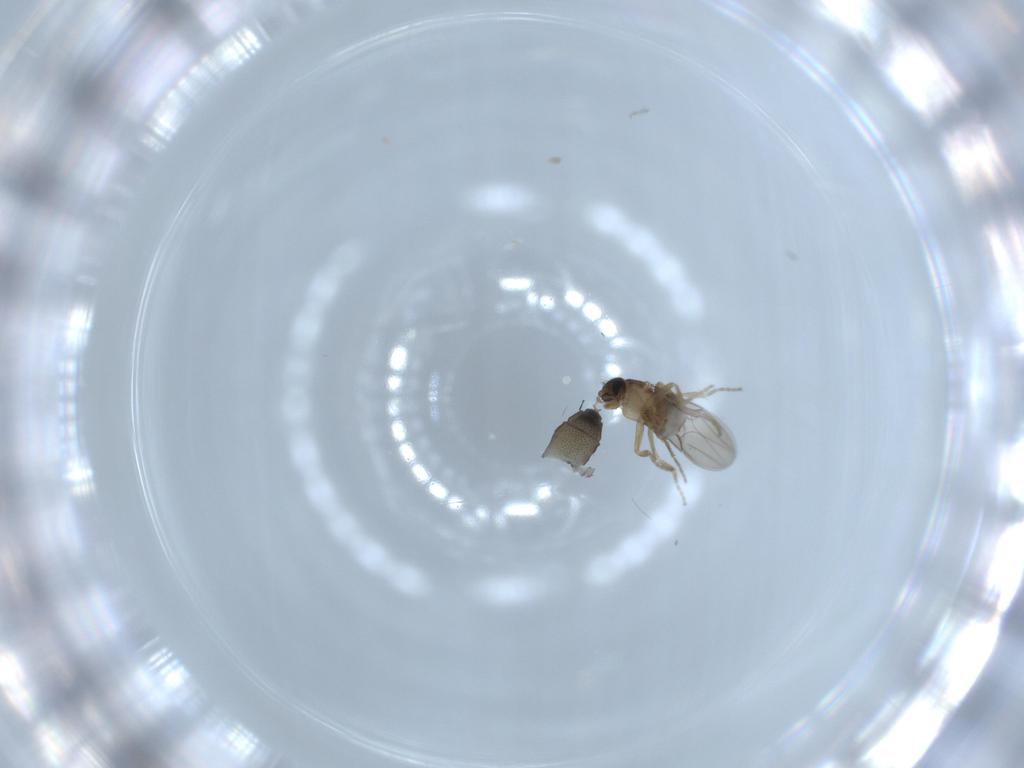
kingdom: Animalia
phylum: Arthropoda
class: Insecta
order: Diptera
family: Phoridae
